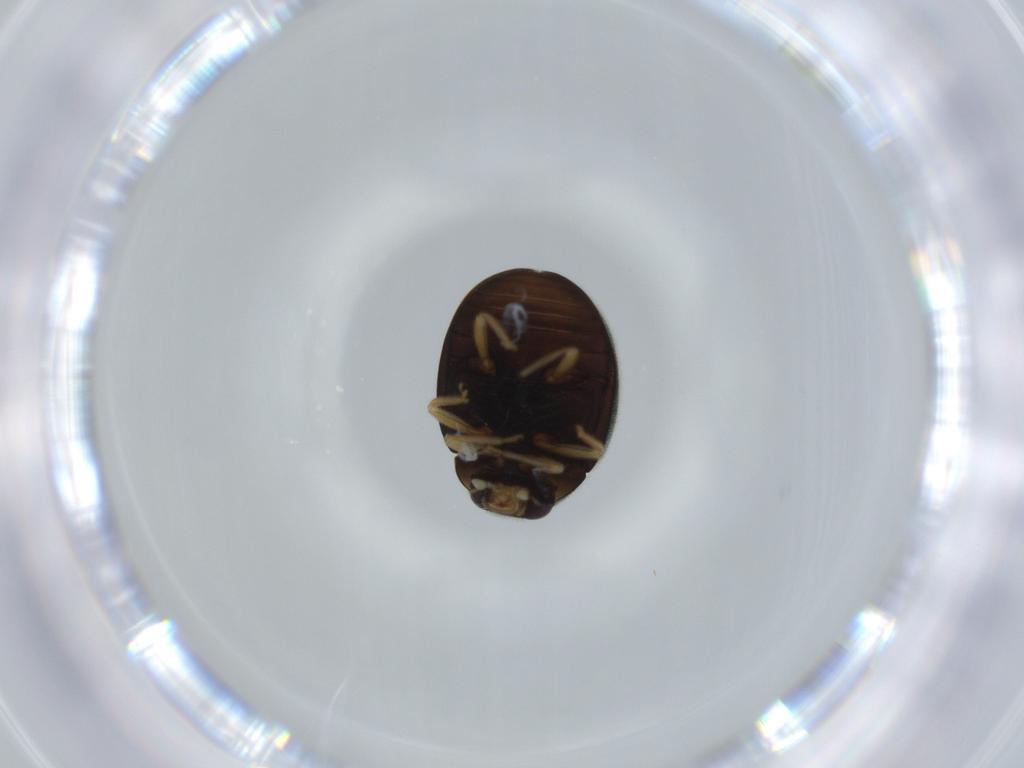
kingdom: Animalia
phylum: Arthropoda
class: Insecta
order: Coleoptera
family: Coccinellidae
